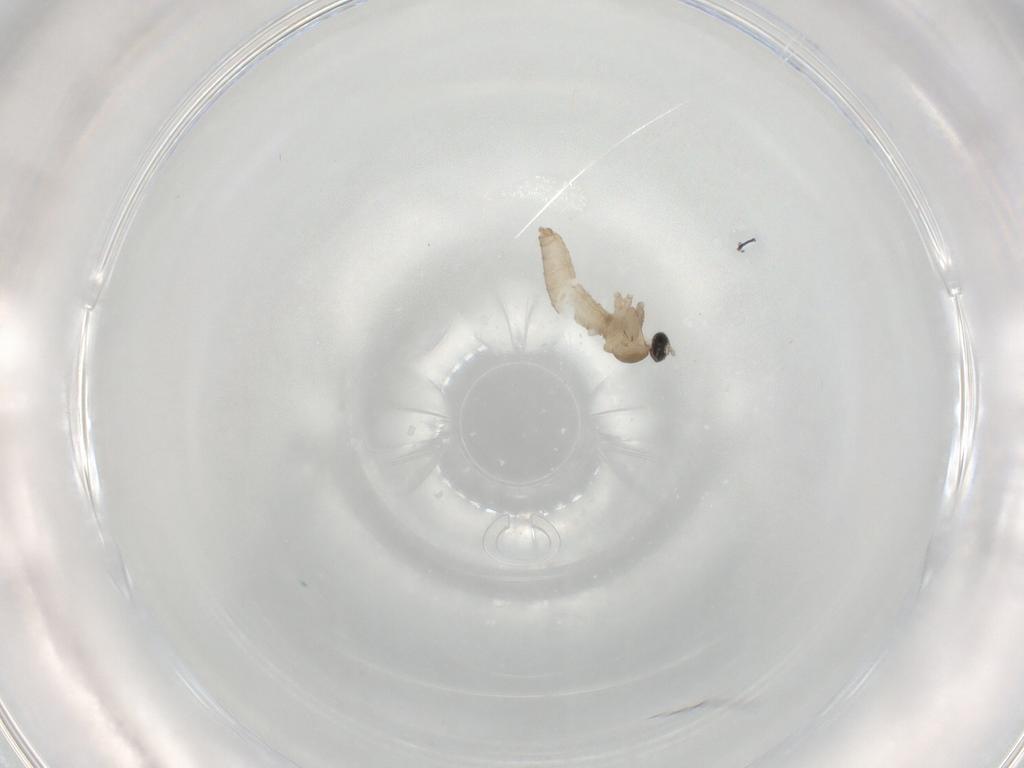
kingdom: Animalia
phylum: Arthropoda
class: Insecta
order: Diptera
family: Cecidomyiidae
